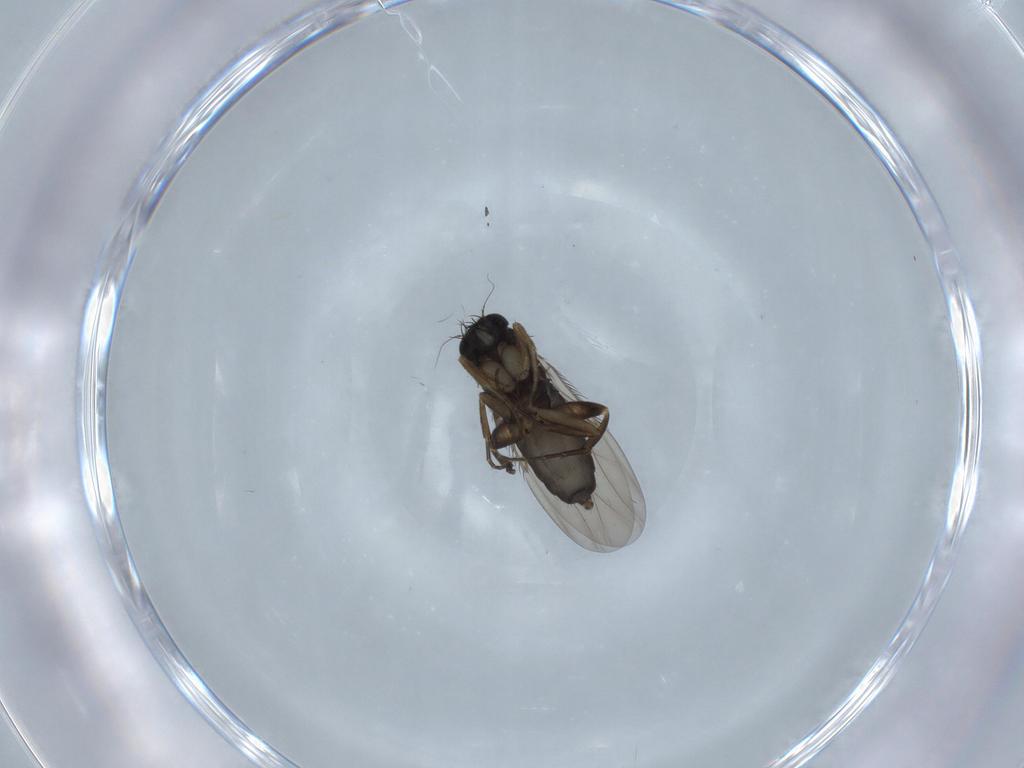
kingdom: Animalia
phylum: Arthropoda
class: Insecta
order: Diptera
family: Phoridae
